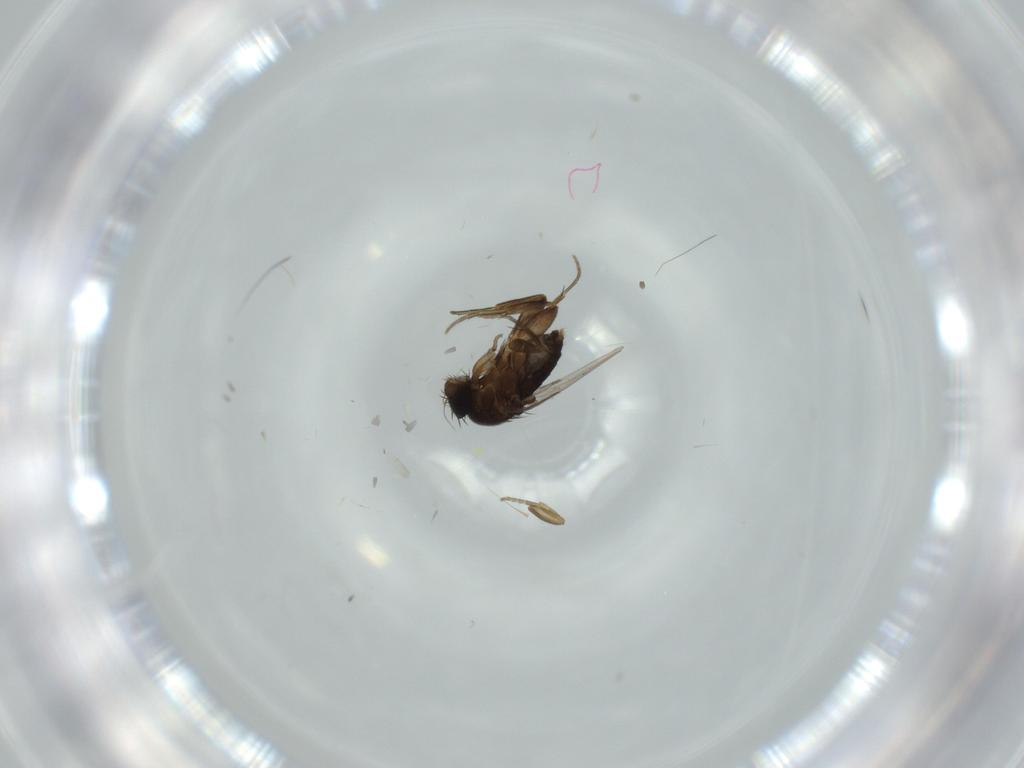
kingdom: Animalia
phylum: Arthropoda
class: Insecta
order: Diptera
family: Phoridae
